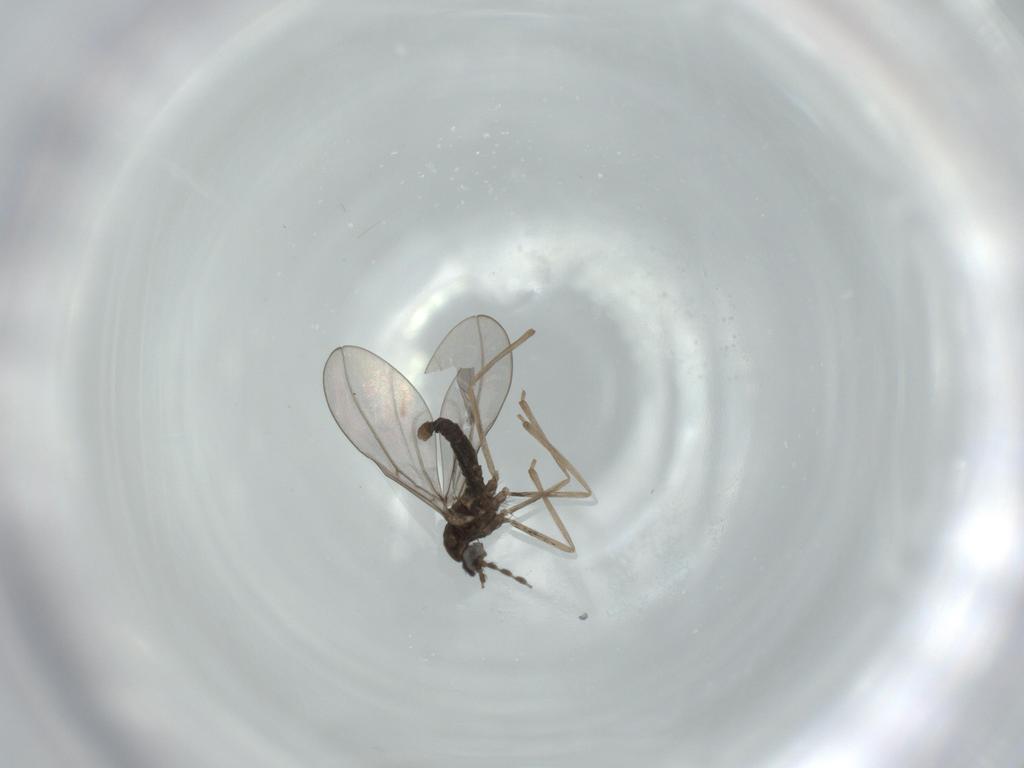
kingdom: Animalia
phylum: Arthropoda
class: Insecta
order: Diptera
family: Cecidomyiidae
